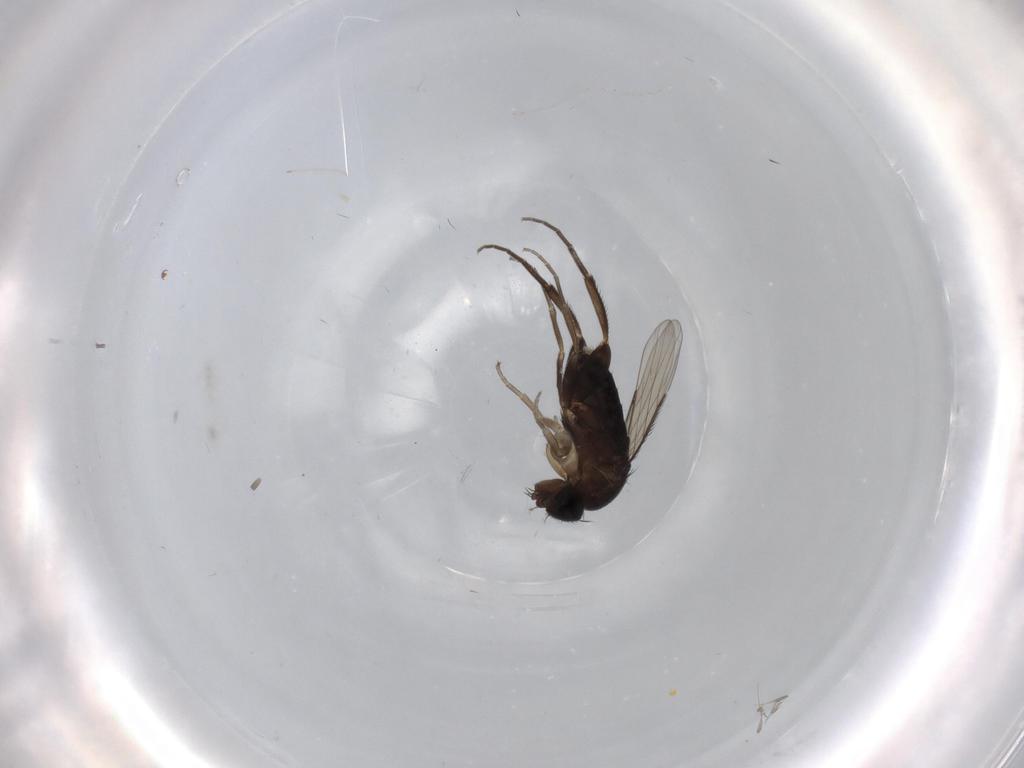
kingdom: Animalia
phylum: Arthropoda
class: Insecta
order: Diptera
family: Phoridae
